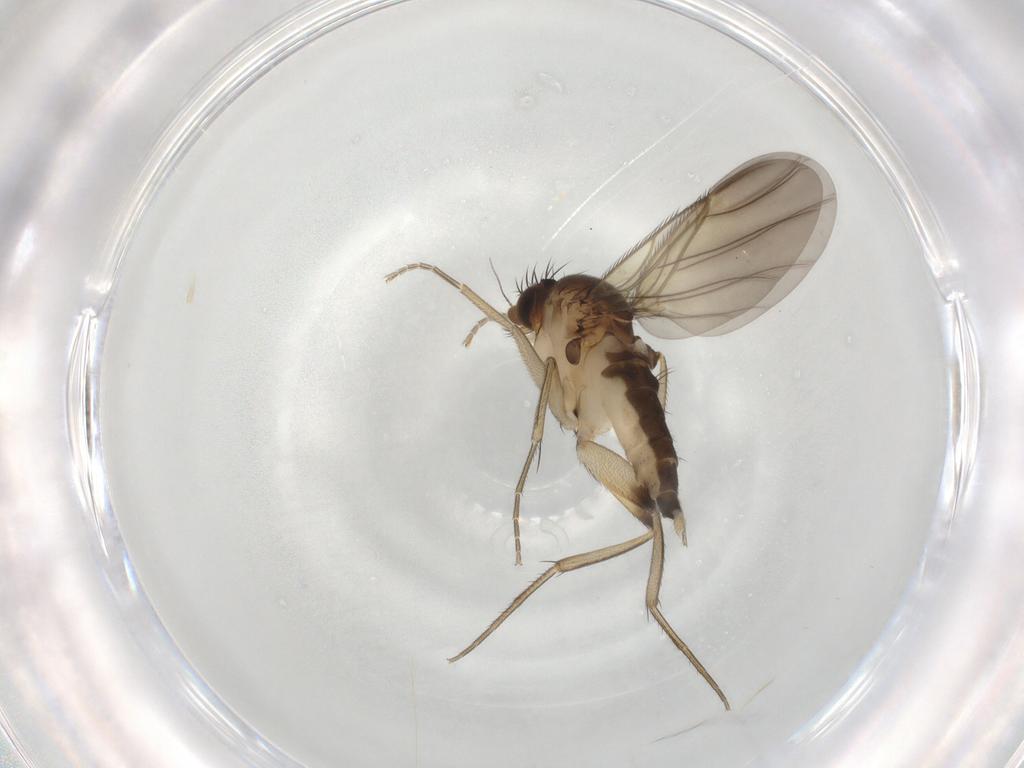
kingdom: Animalia
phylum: Arthropoda
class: Insecta
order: Diptera
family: Phoridae
